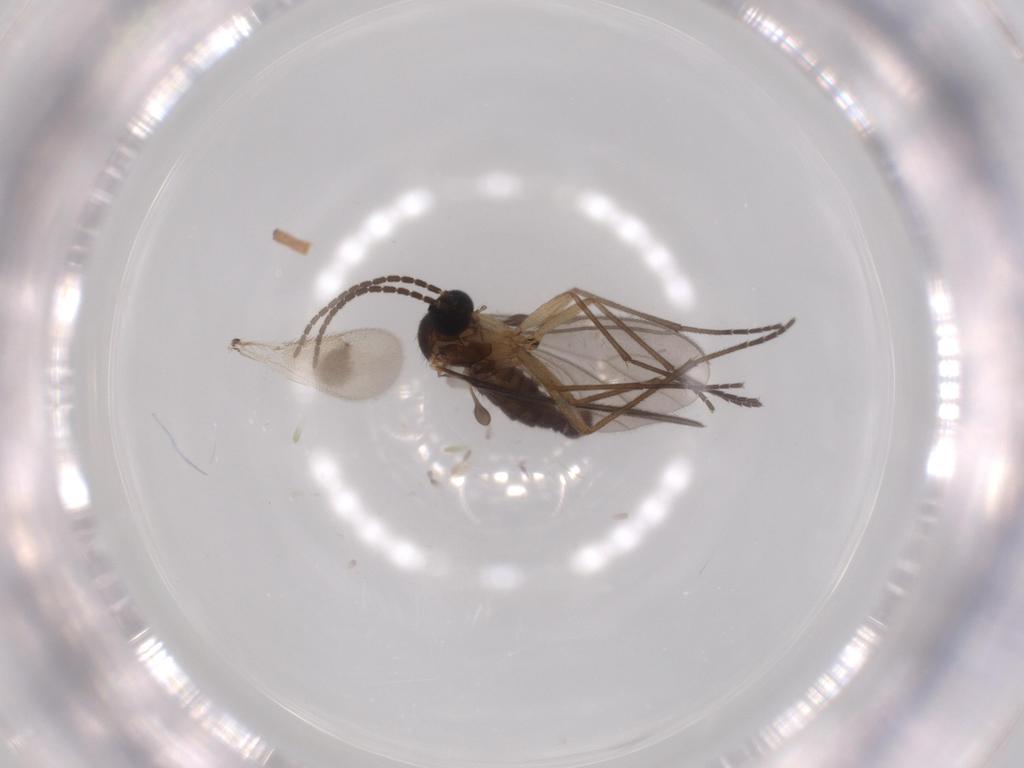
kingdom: Animalia
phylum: Arthropoda
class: Insecta
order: Diptera
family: Sciaridae
